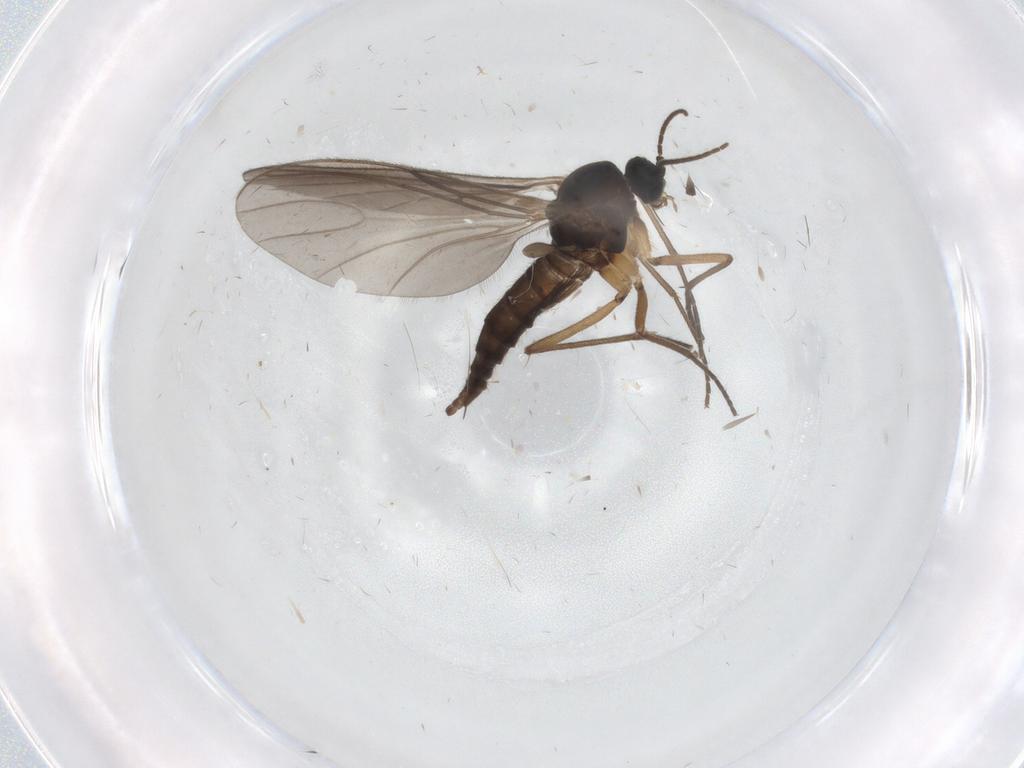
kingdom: Animalia
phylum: Arthropoda
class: Insecta
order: Diptera
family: Sciaridae
